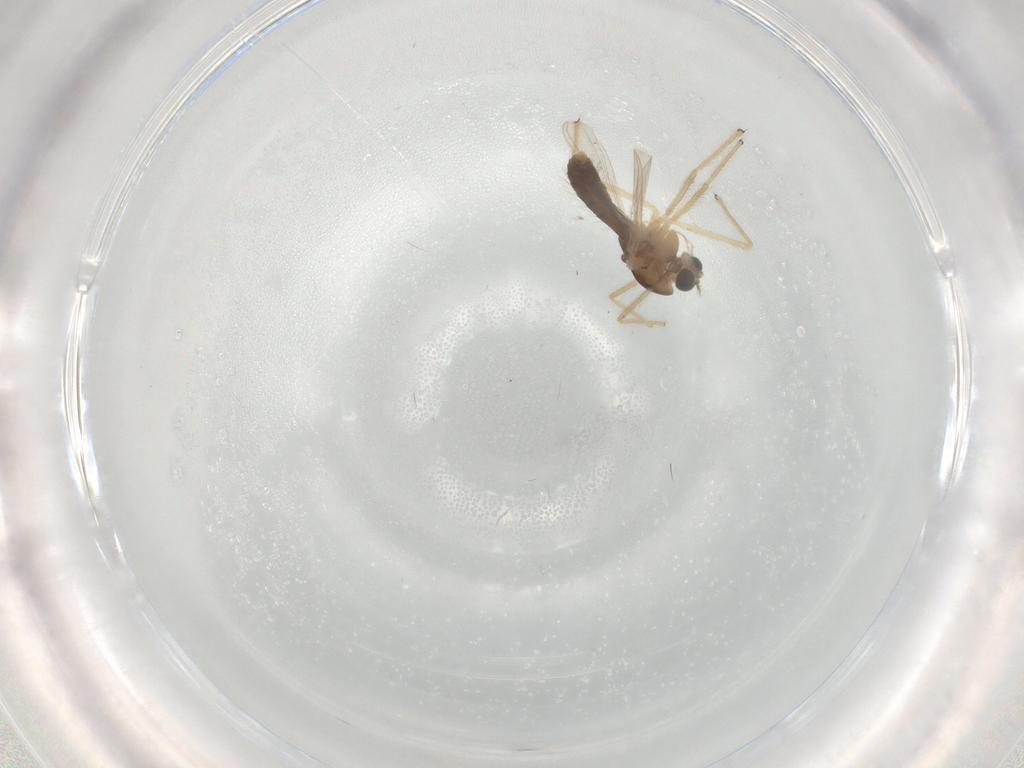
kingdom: Animalia
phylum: Arthropoda
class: Insecta
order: Diptera
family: Chironomidae
